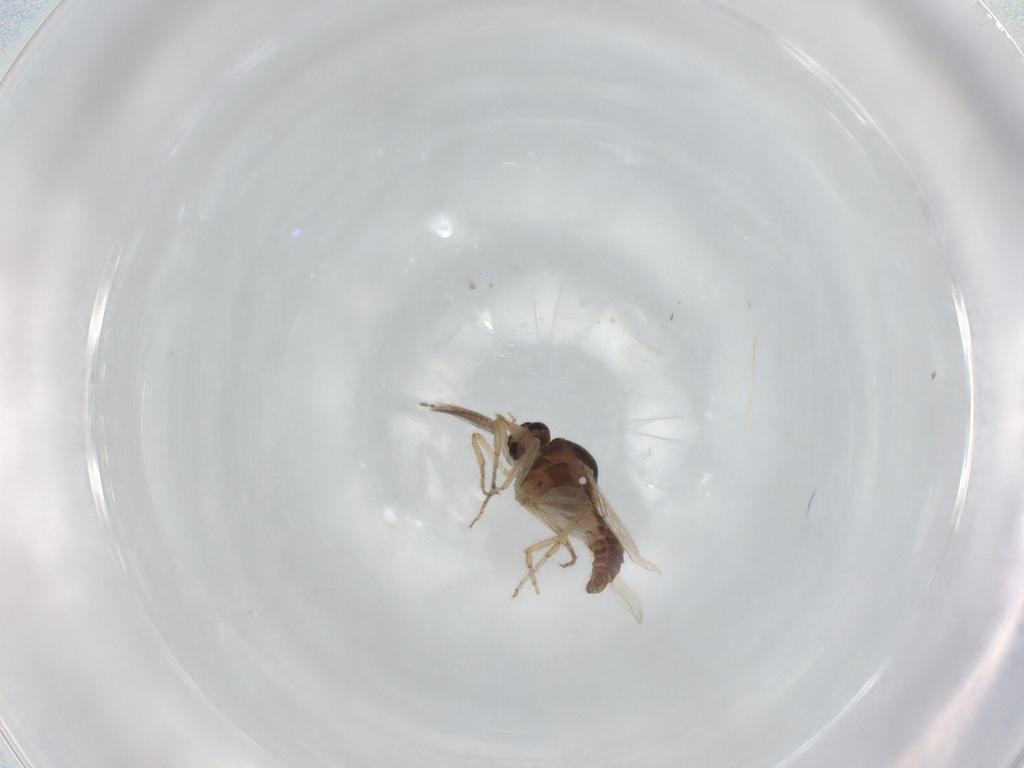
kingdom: Animalia
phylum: Arthropoda
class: Insecta
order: Diptera
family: Ceratopogonidae
